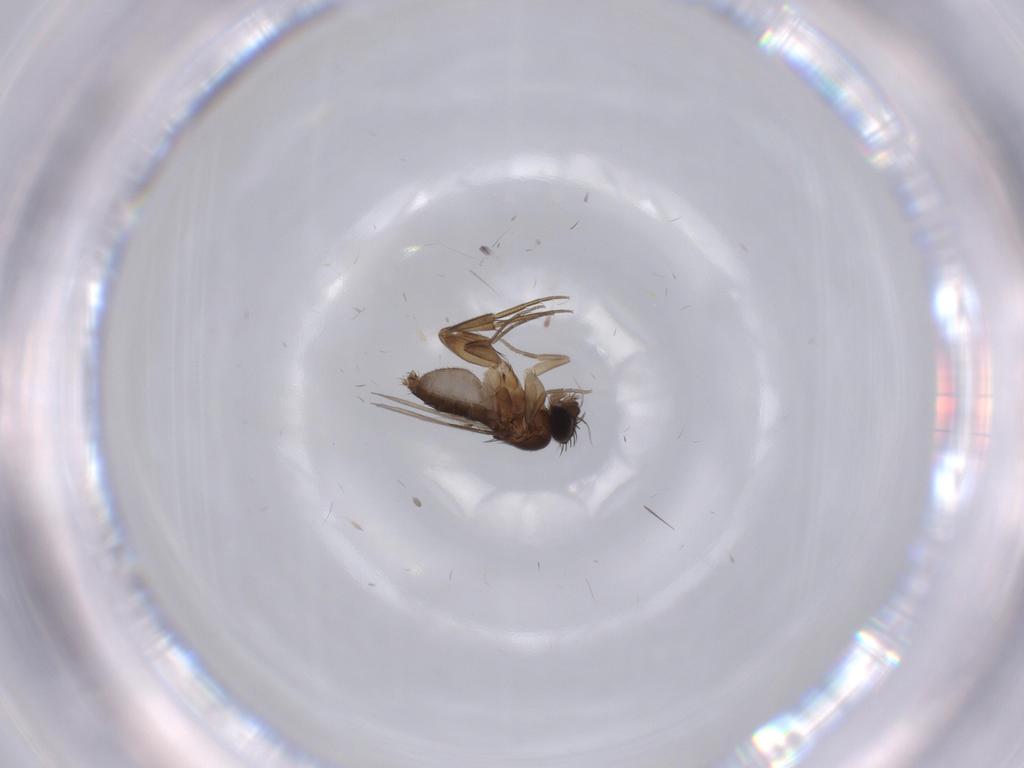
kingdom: Animalia
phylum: Arthropoda
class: Insecta
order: Diptera
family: Phoridae
